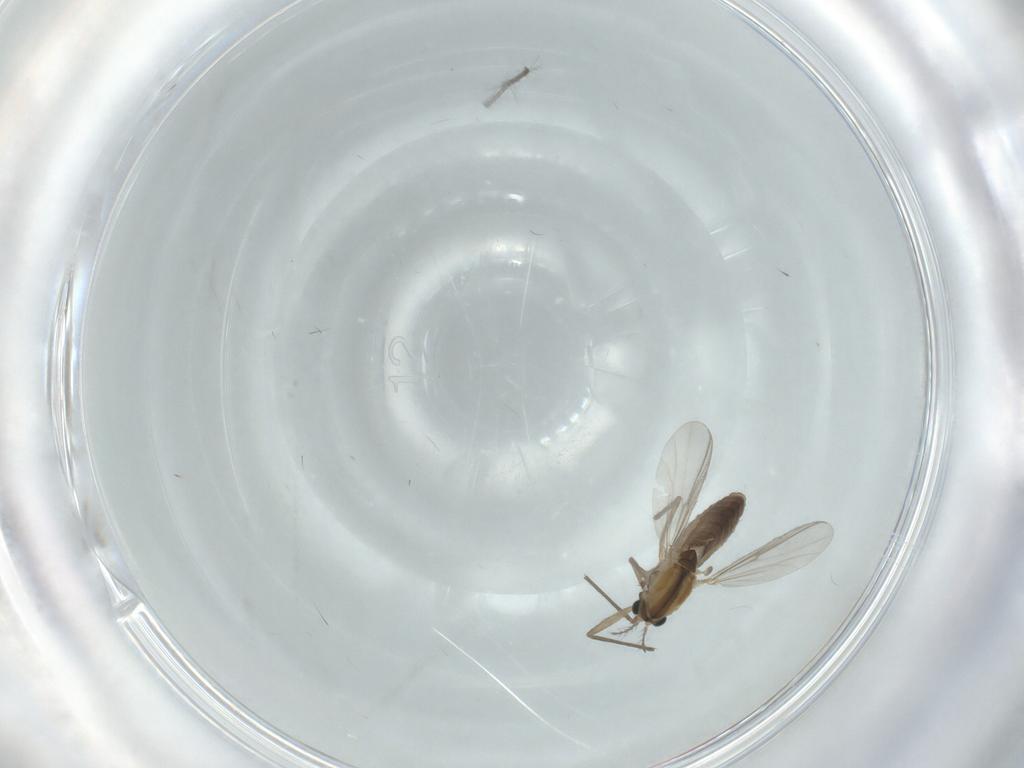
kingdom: Animalia
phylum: Arthropoda
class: Insecta
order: Diptera
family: Chironomidae
